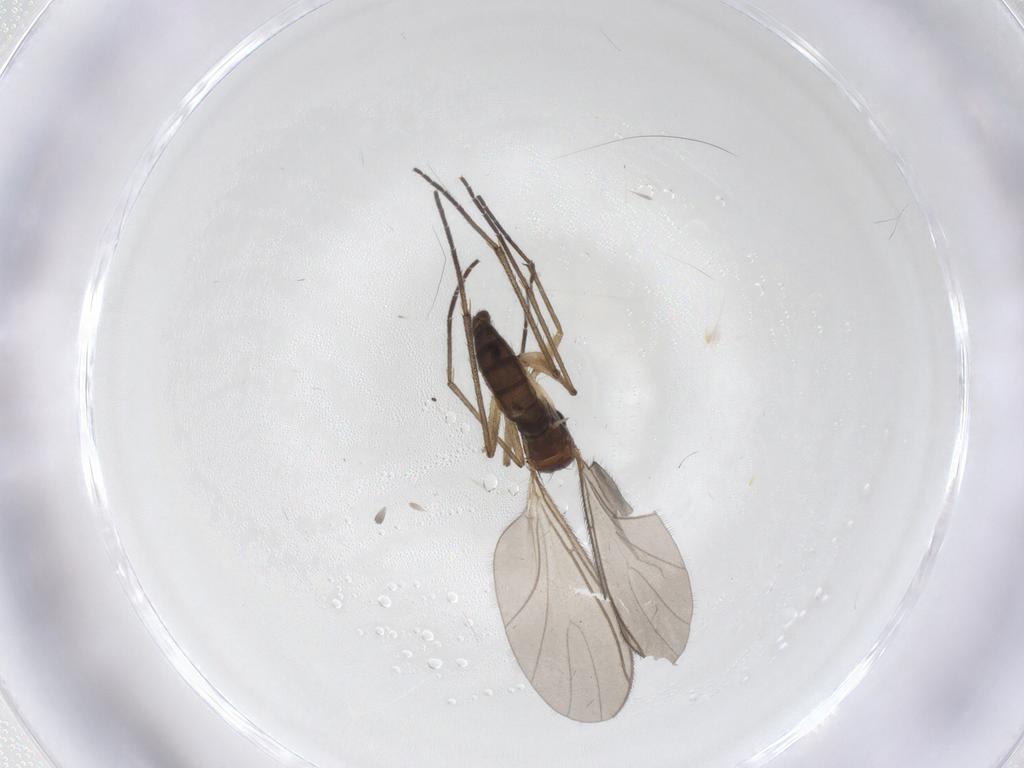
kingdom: Animalia
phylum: Arthropoda
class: Insecta
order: Diptera
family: Sciaridae
